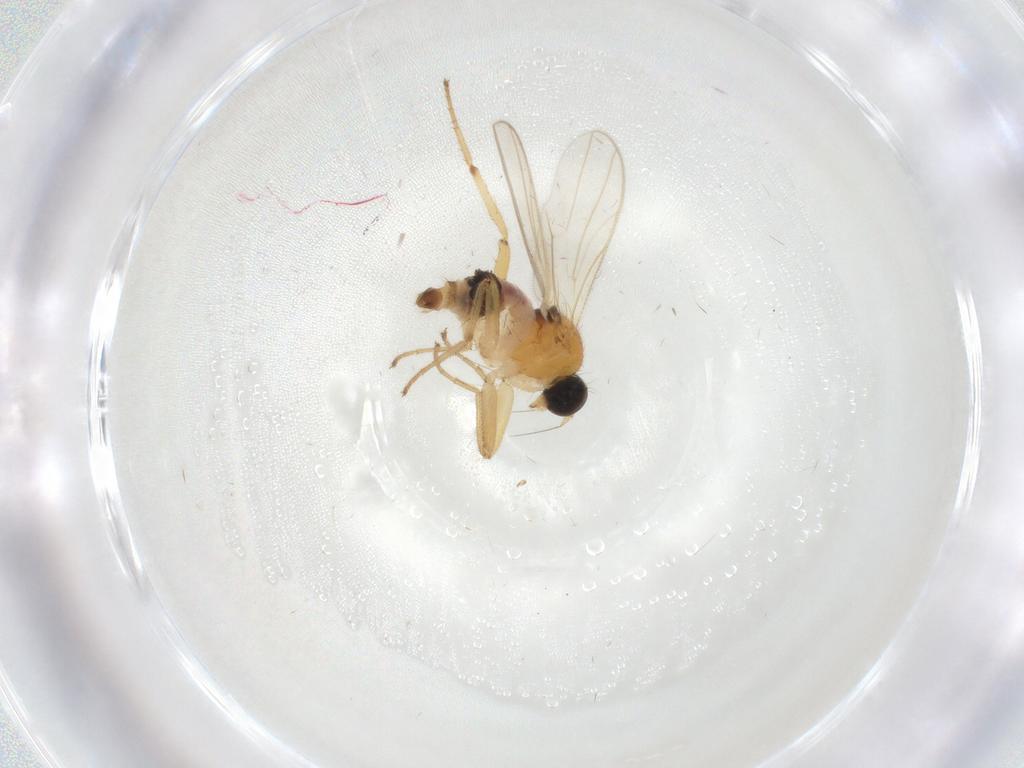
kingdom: Animalia
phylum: Arthropoda
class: Insecta
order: Diptera
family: Hybotidae
